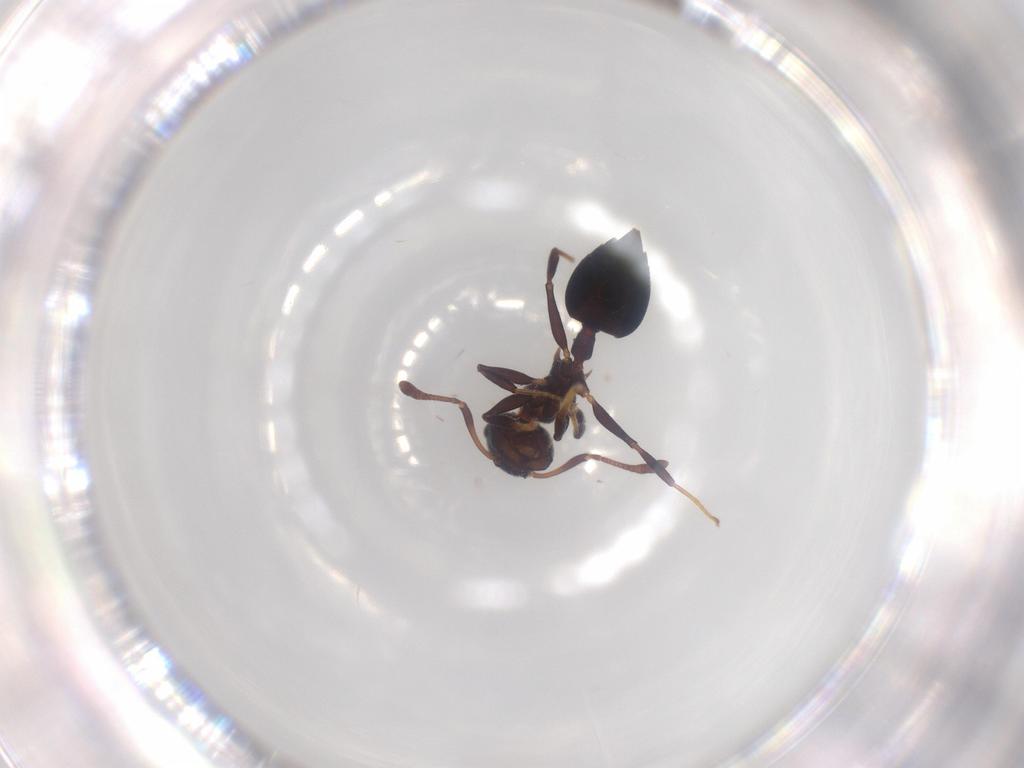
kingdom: Animalia
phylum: Arthropoda
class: Insecta
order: Hymenoptera
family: Formicidae
